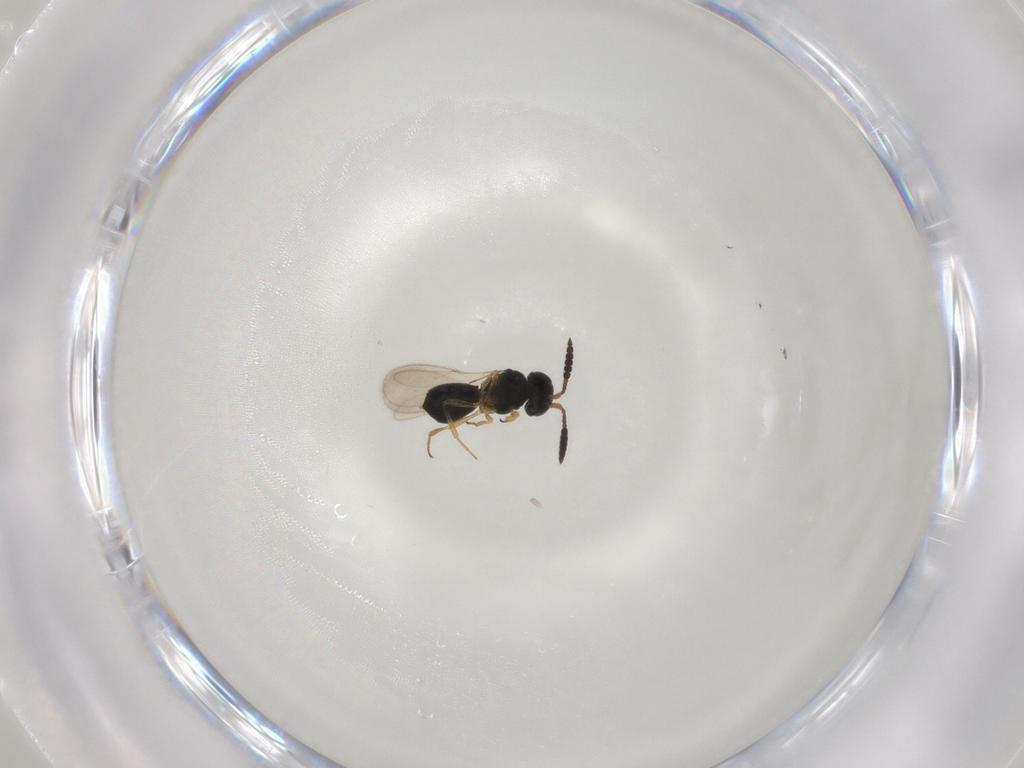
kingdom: Animalia
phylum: Arthropoda
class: Insecta
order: Hymenoptera
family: Scelionidae
